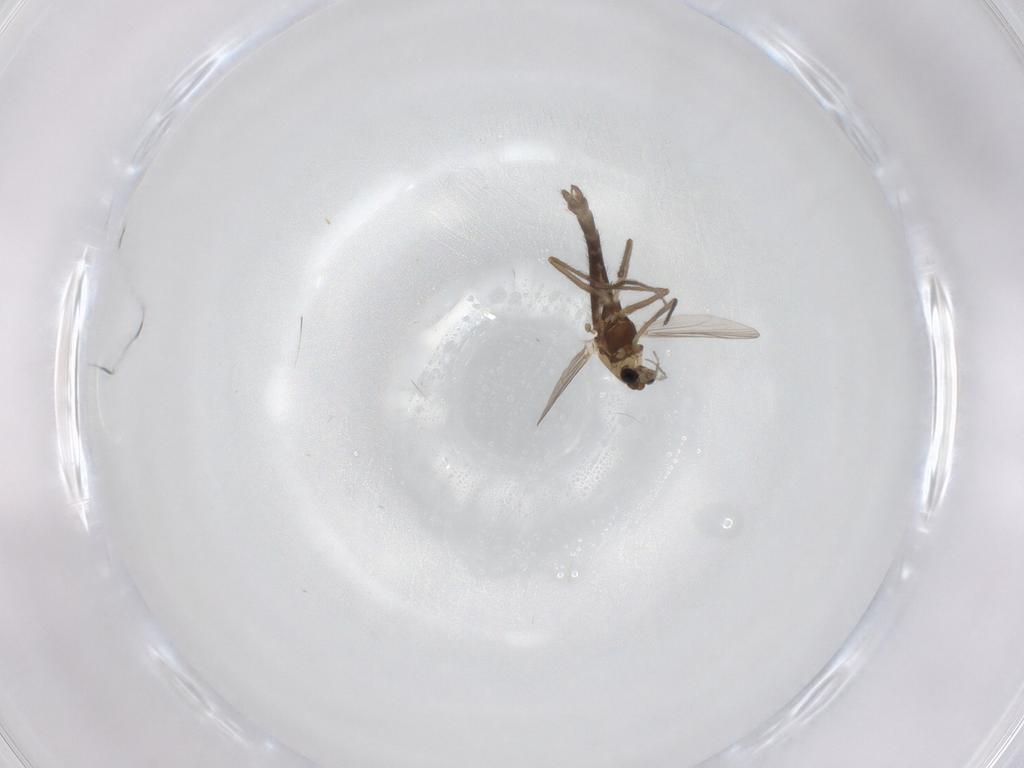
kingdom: Animalia
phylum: Arthropoda
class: Insecta
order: Diptera
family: Chironomidae
